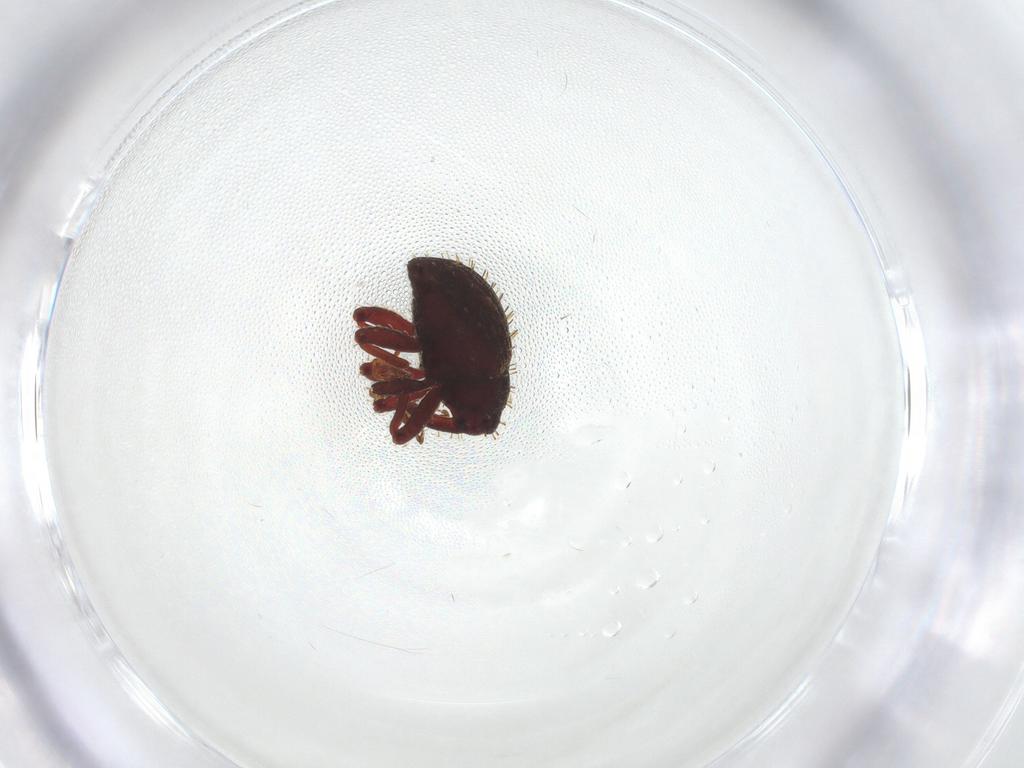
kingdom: Animalia
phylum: Arthropoda
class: Insecta
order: Coleoptera
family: Curculionidae
